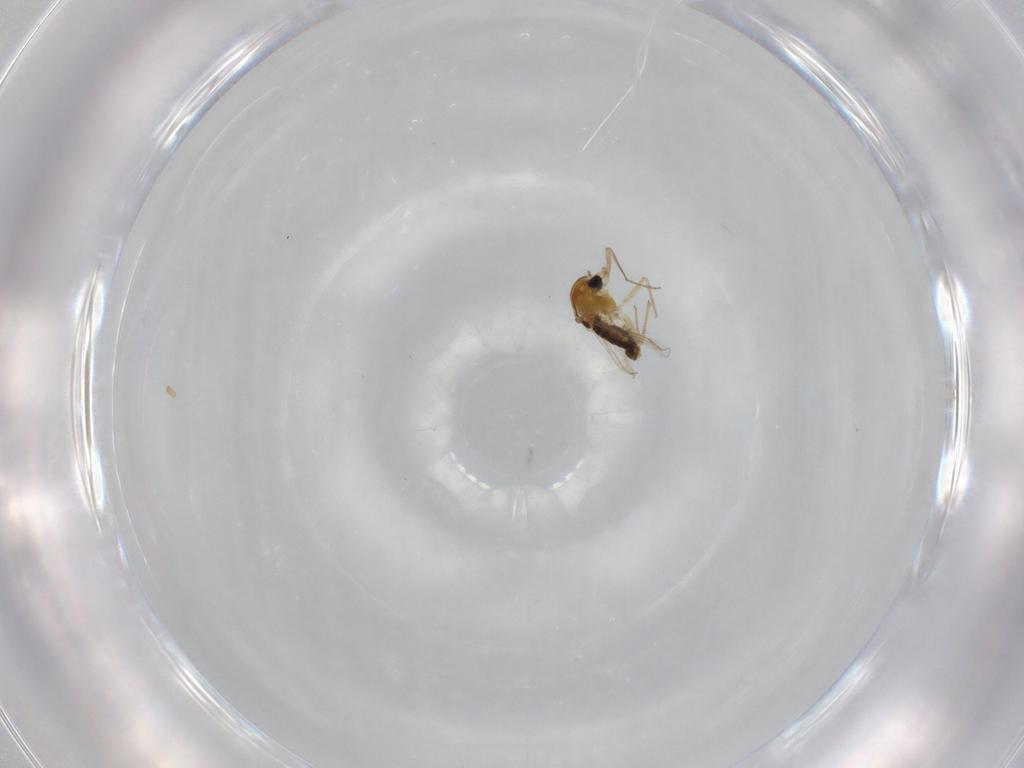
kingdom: Animalia
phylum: Arthropoda
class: Insecta
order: Diptera
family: Chironomidae
